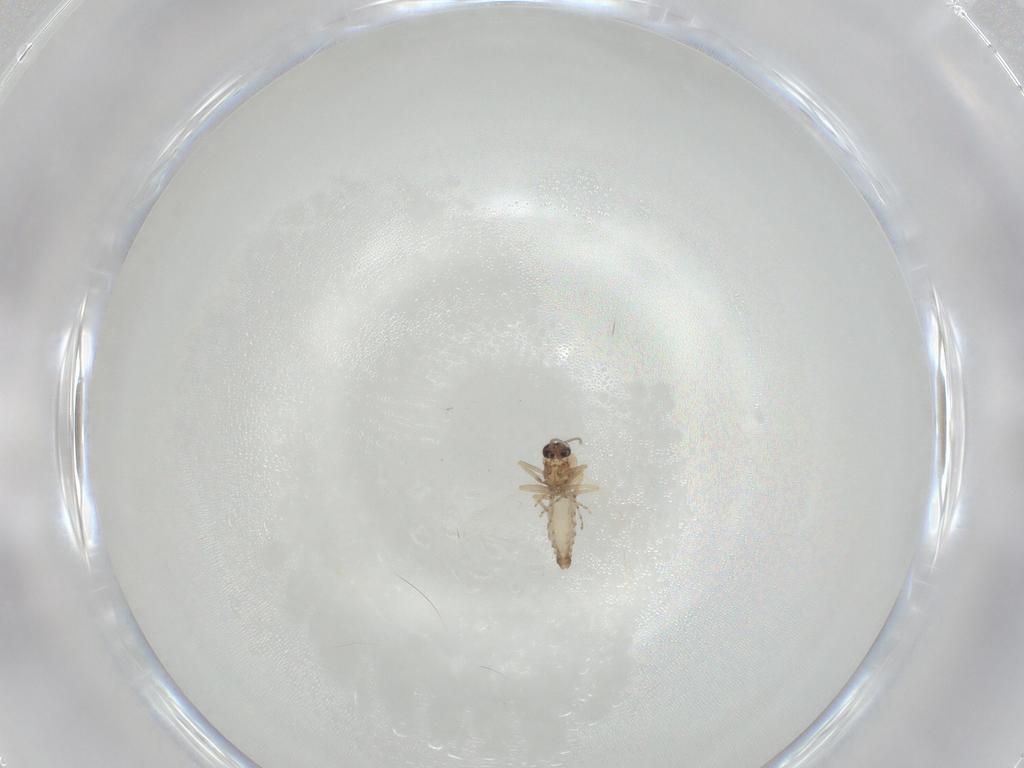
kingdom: Animalia
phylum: Arthropoda
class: Insecta
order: Diptera
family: Ceratopogonidae
